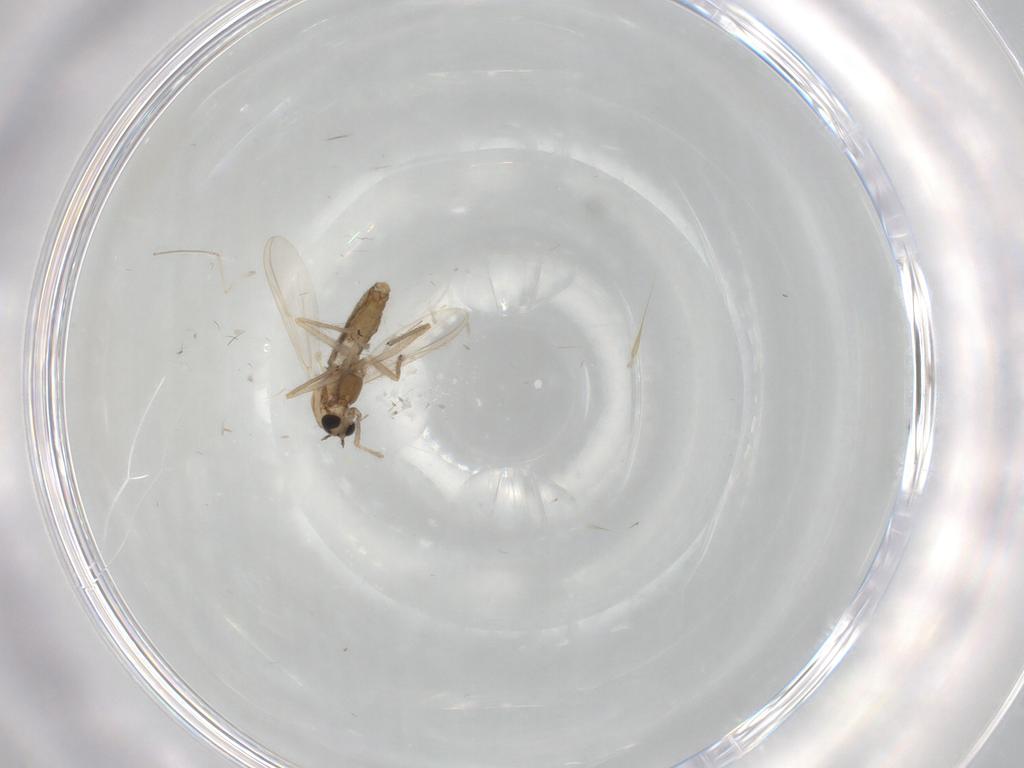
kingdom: Animalia
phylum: Arthropoda
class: Insecta
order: Diptera
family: Chironomidae
